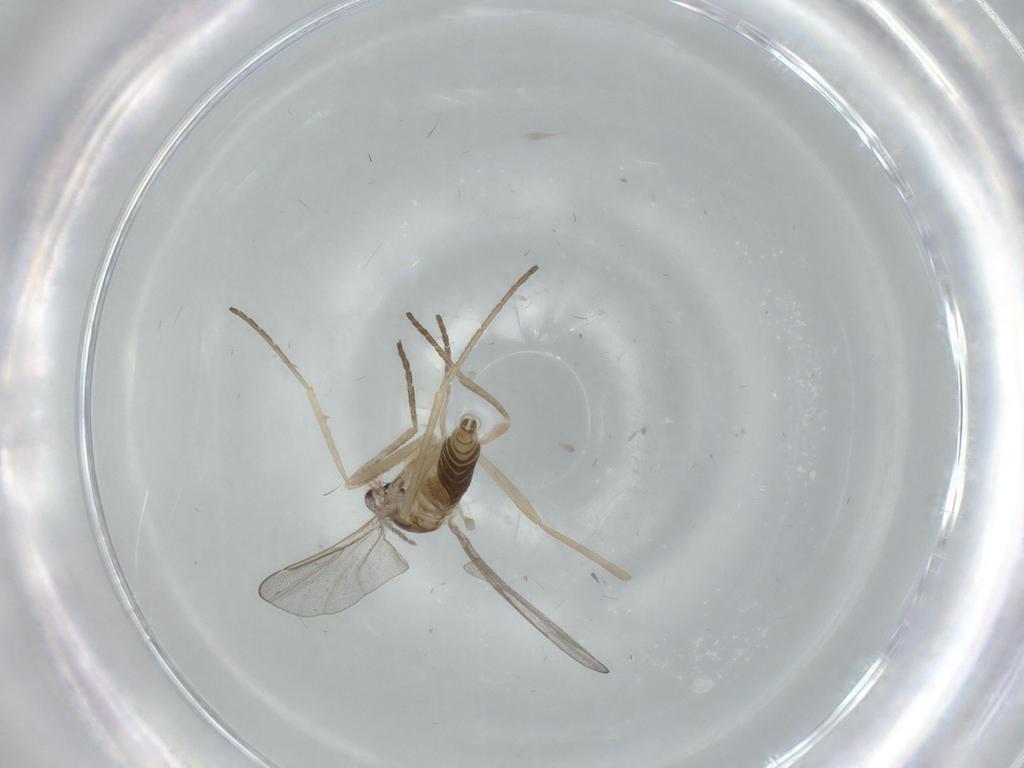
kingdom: Animalia
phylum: Arthropoda
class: Insecta
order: Diptera
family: Cecidomyiidae
